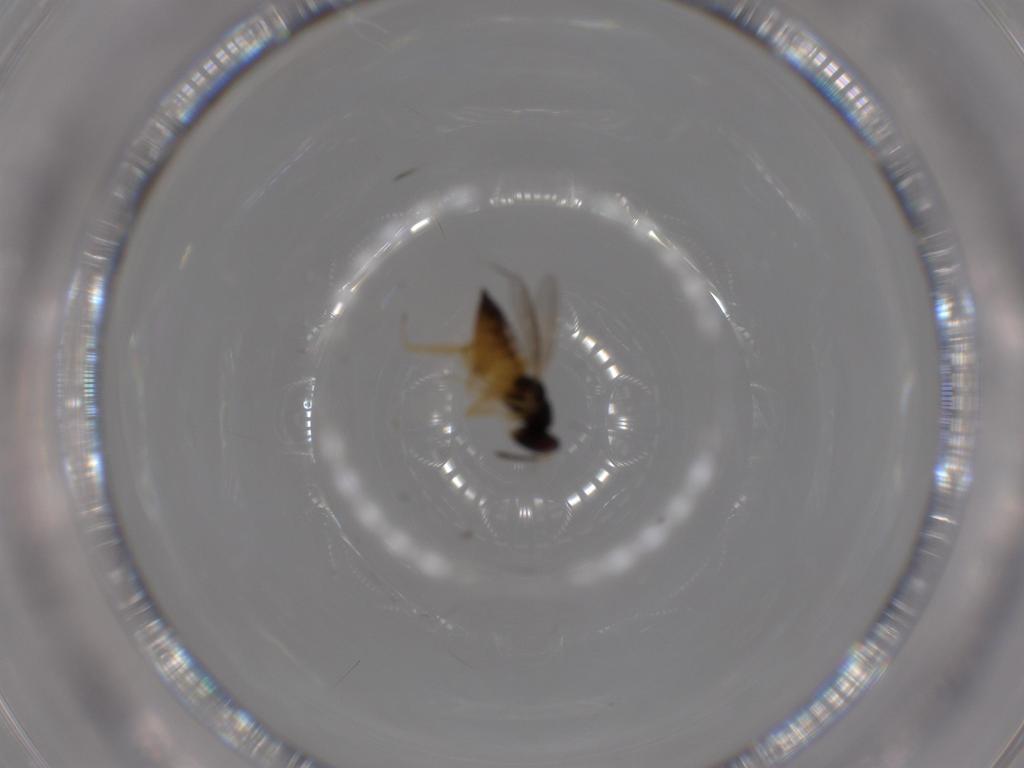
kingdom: Animalia
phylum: Arthropoda
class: Insecta
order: Hymenoptera
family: Eulophidae
